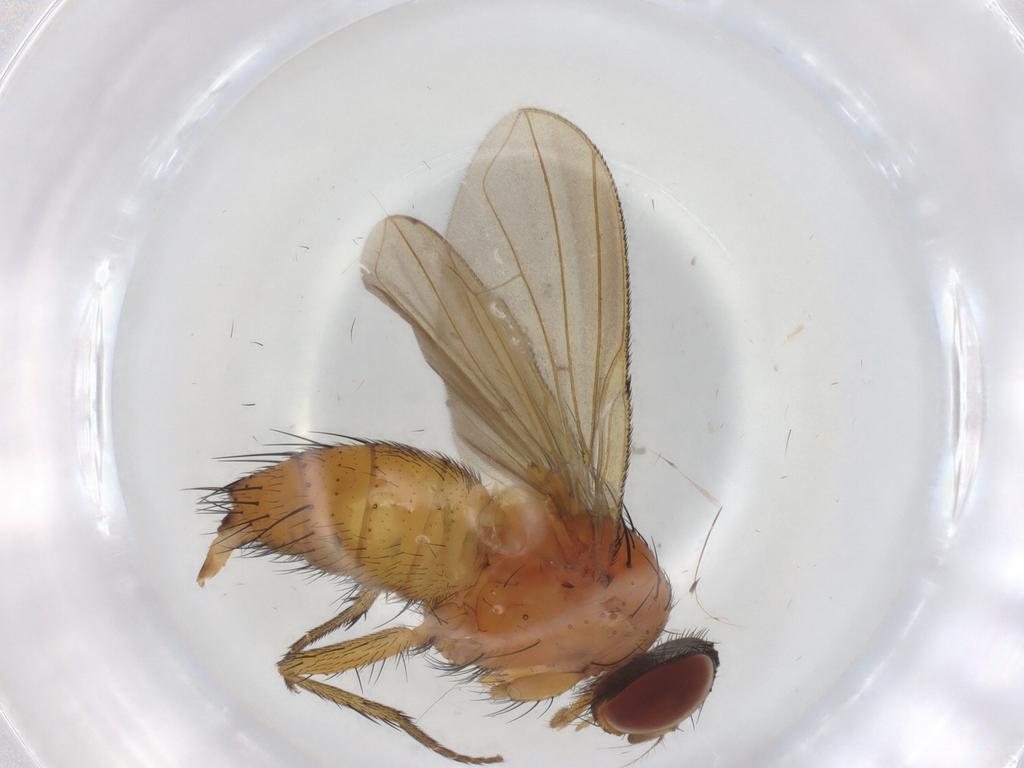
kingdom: Animalia
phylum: Arthropoda
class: Insecta
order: Diptera
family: Calliphoridae
